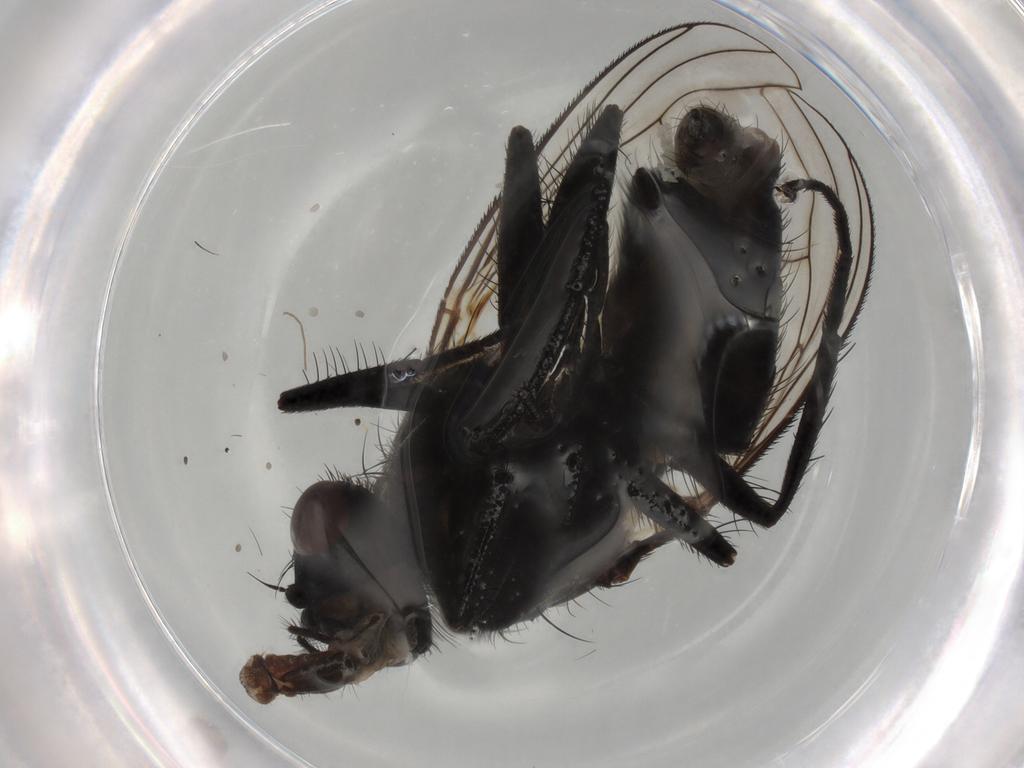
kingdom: Animalia
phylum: Arthropoda
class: Insecta
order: Diptera
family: Muscidae
